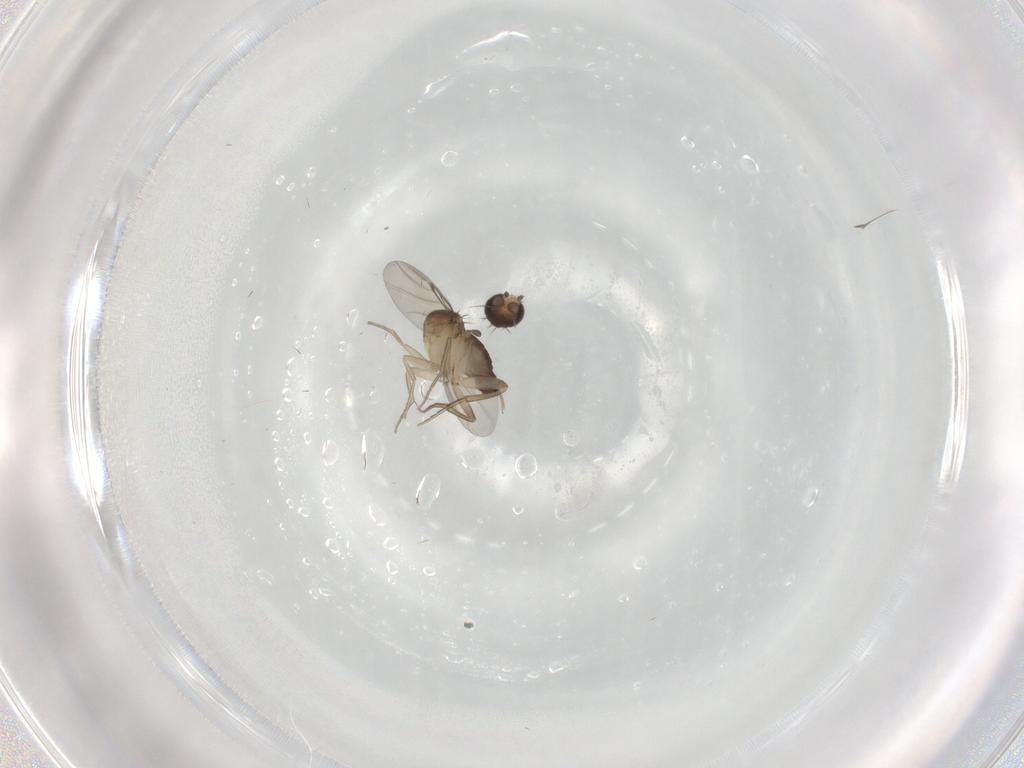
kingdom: Animalia
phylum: Arthropoda
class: Insecta
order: Diptera
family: Phoridae
